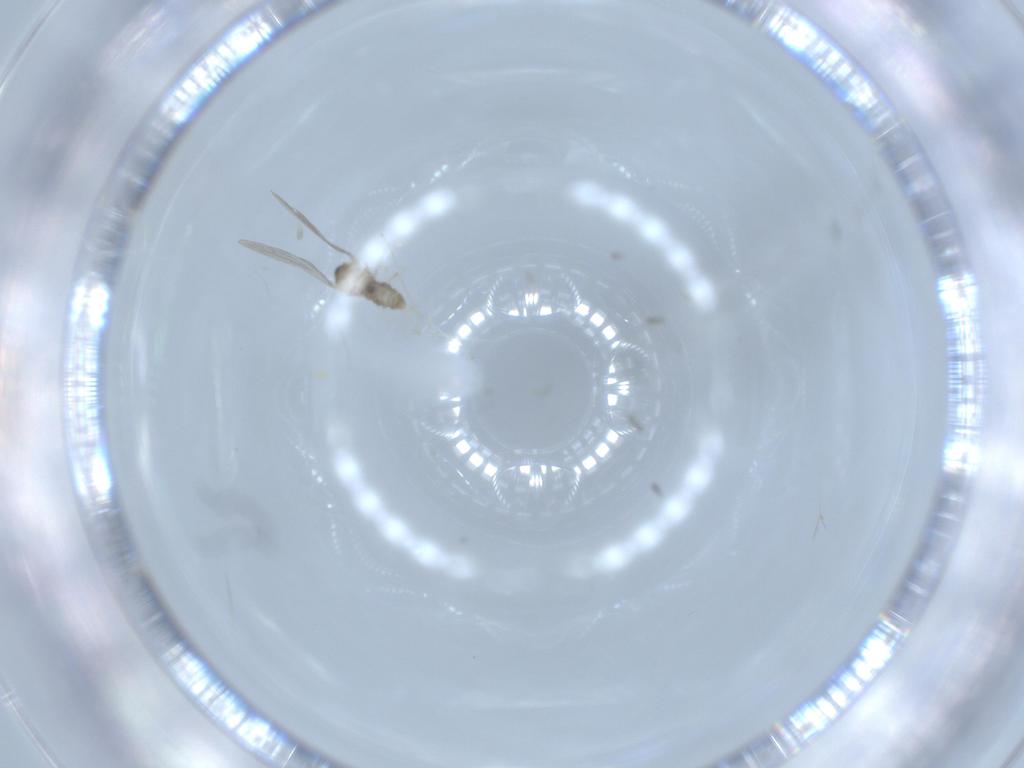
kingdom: Animalia
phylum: Arthropoda
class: Insecta
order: Diptera
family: Cecidomyiidae
